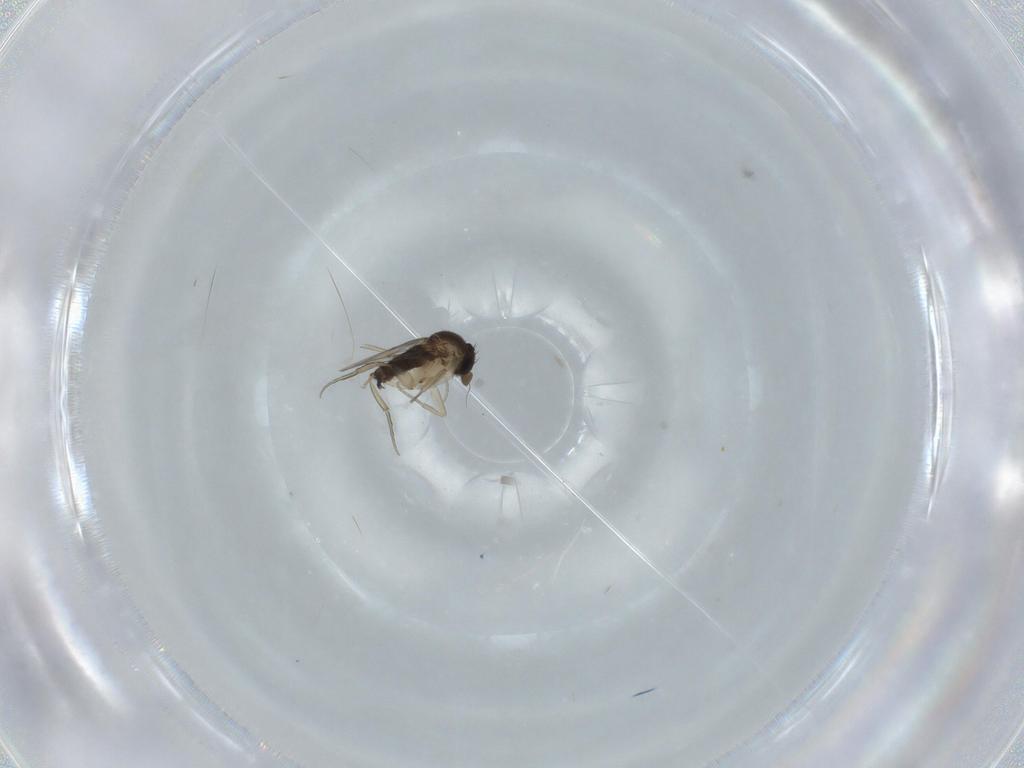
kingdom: Animalia
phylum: Arthropoda
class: Insecta
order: Diptera
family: Phoridae
